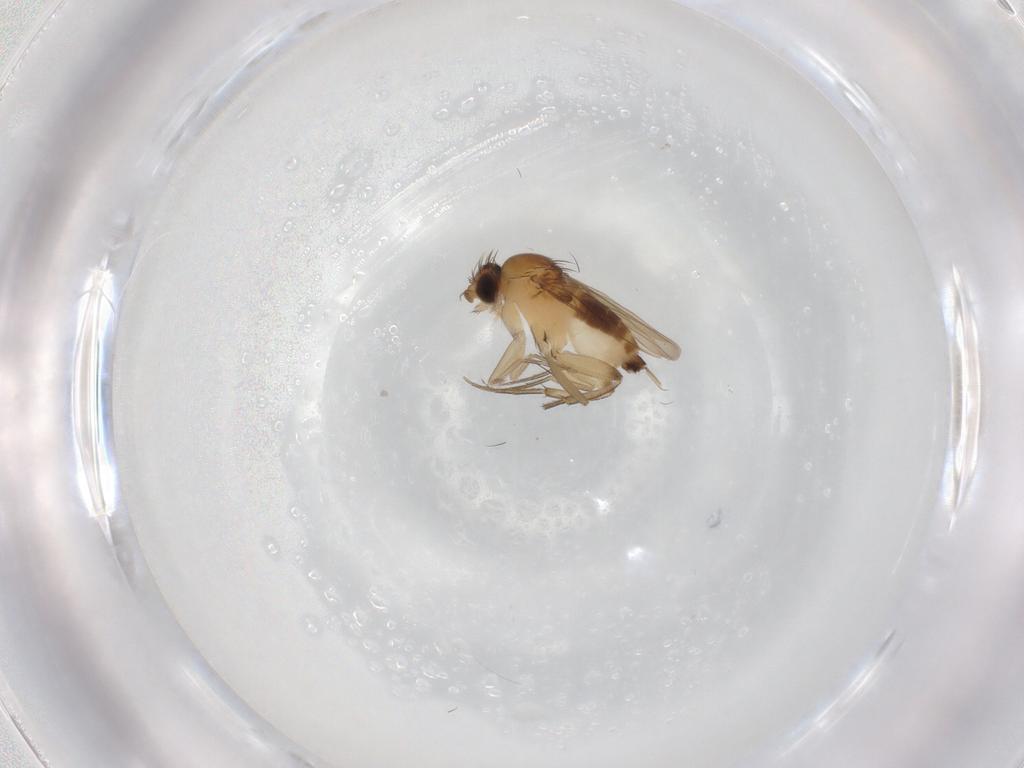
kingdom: Animalia
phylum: Arthropoda
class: Insecta
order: Diptera
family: Phoridae
